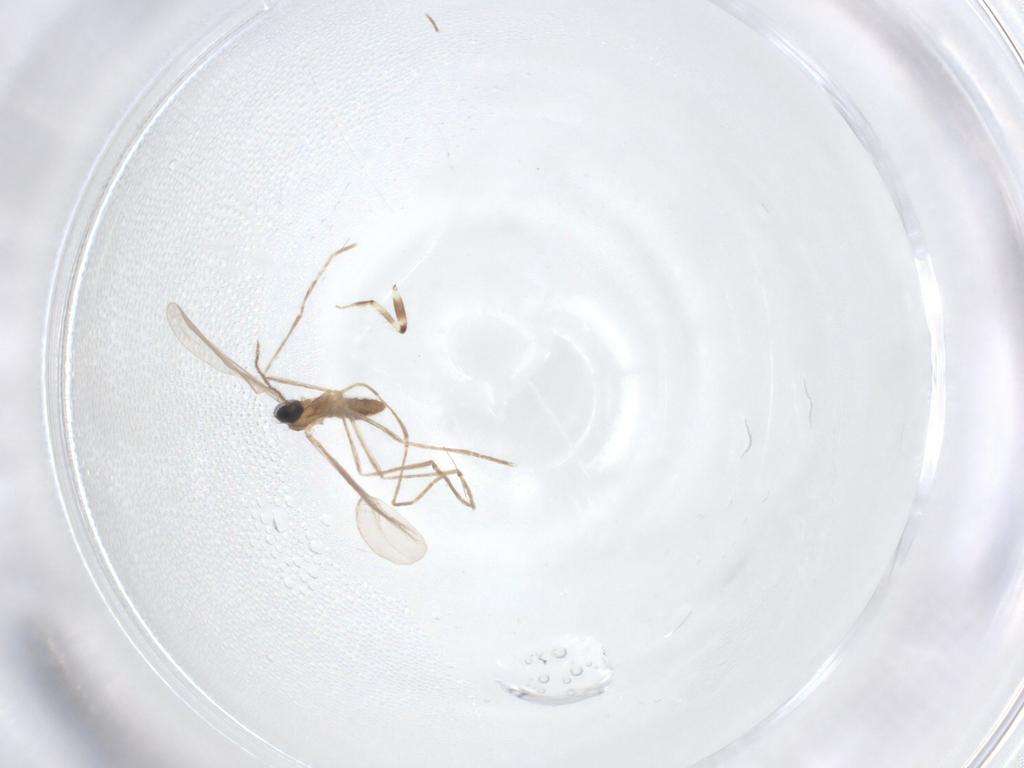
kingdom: Animalia
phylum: Arthropoda
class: Insecta
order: Diptera
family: Cecidomyiidae
